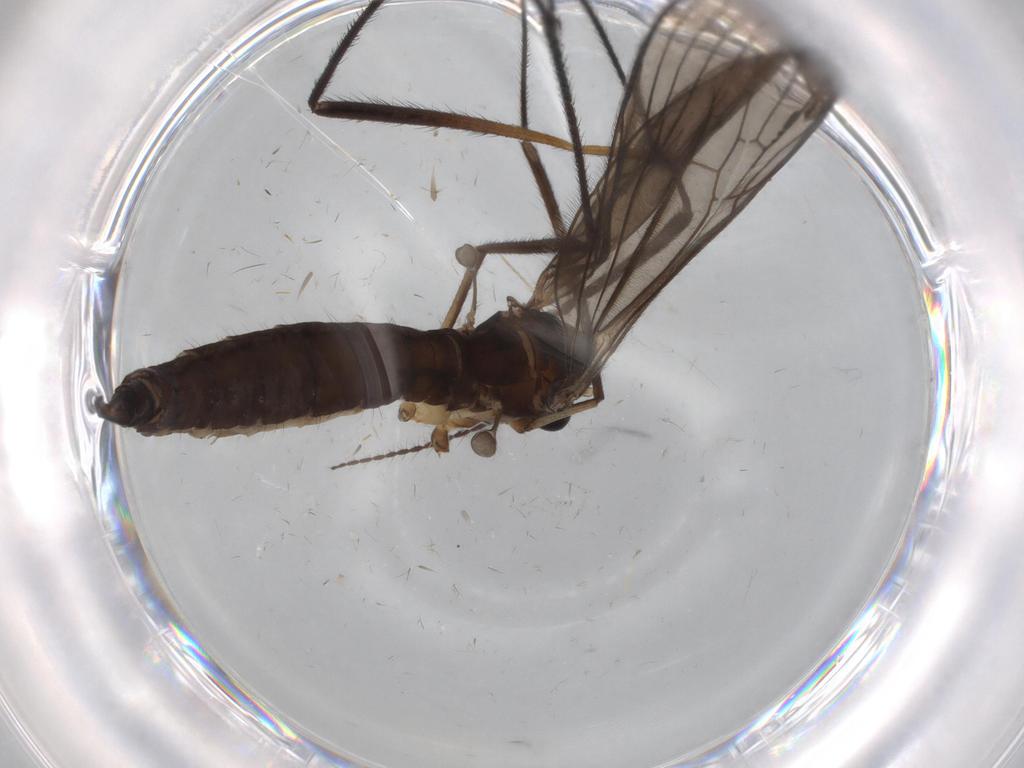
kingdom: Animalia
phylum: Arthropoda
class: Insecta
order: Diptera
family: Limoniidae
